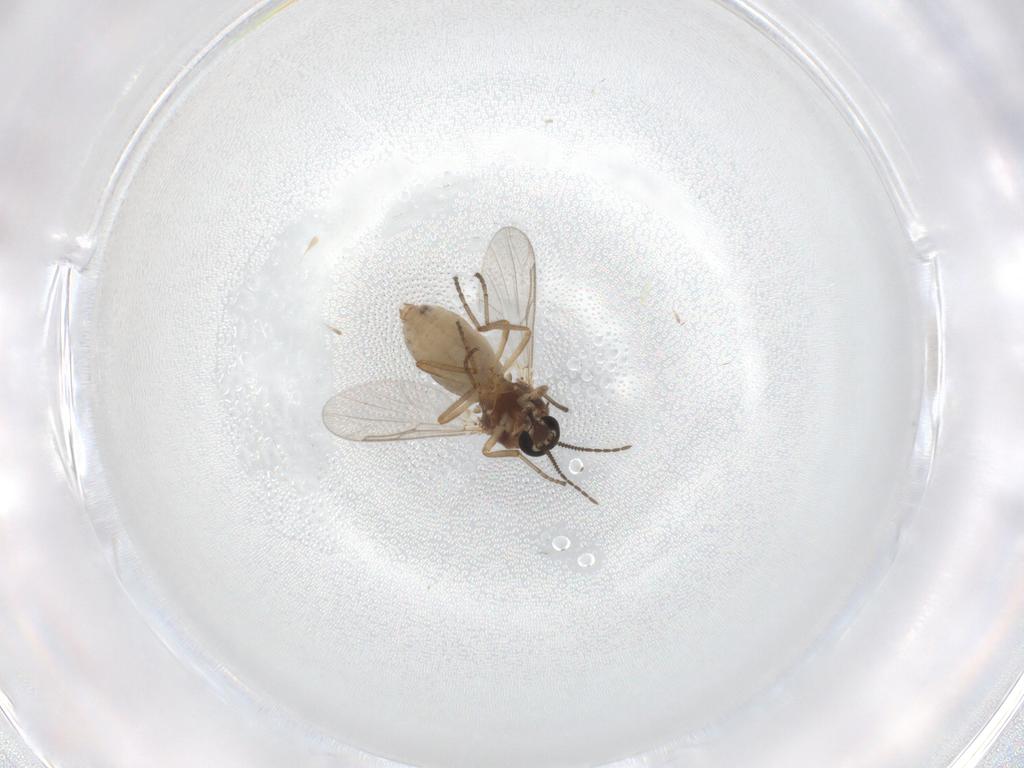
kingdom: Animalia
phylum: Arthropoda
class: Insecta
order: Diptera
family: Ceratopogonidae
